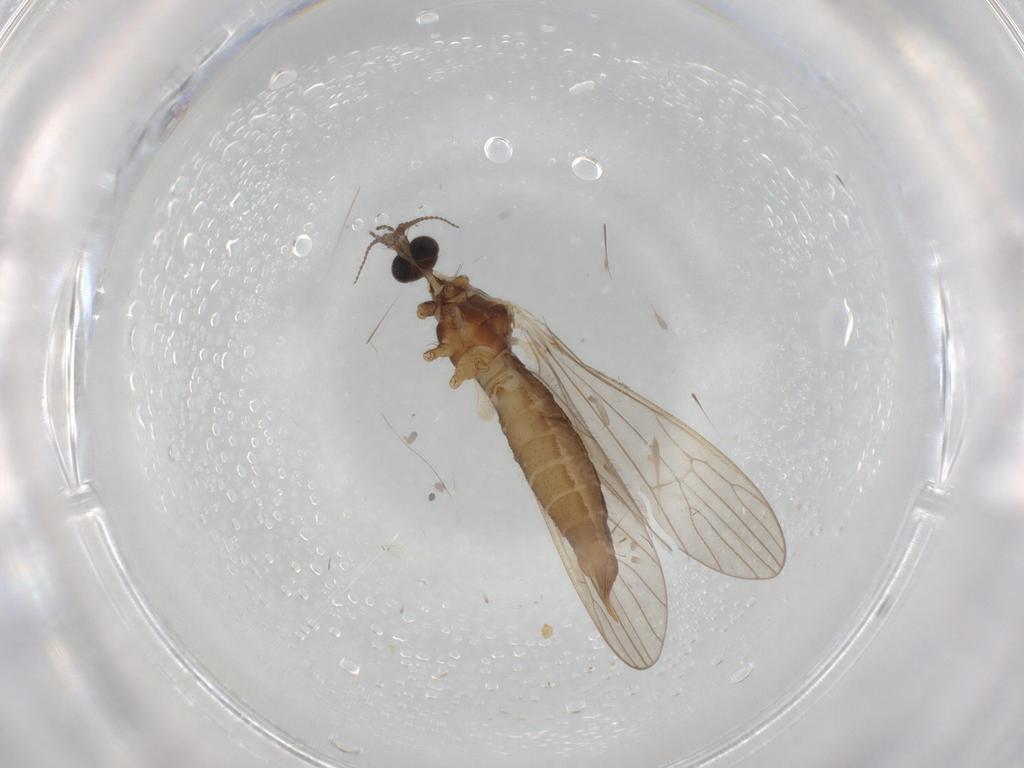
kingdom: Animalia
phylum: Arthropoda
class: Insecta
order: Diptera
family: Limoniidae
